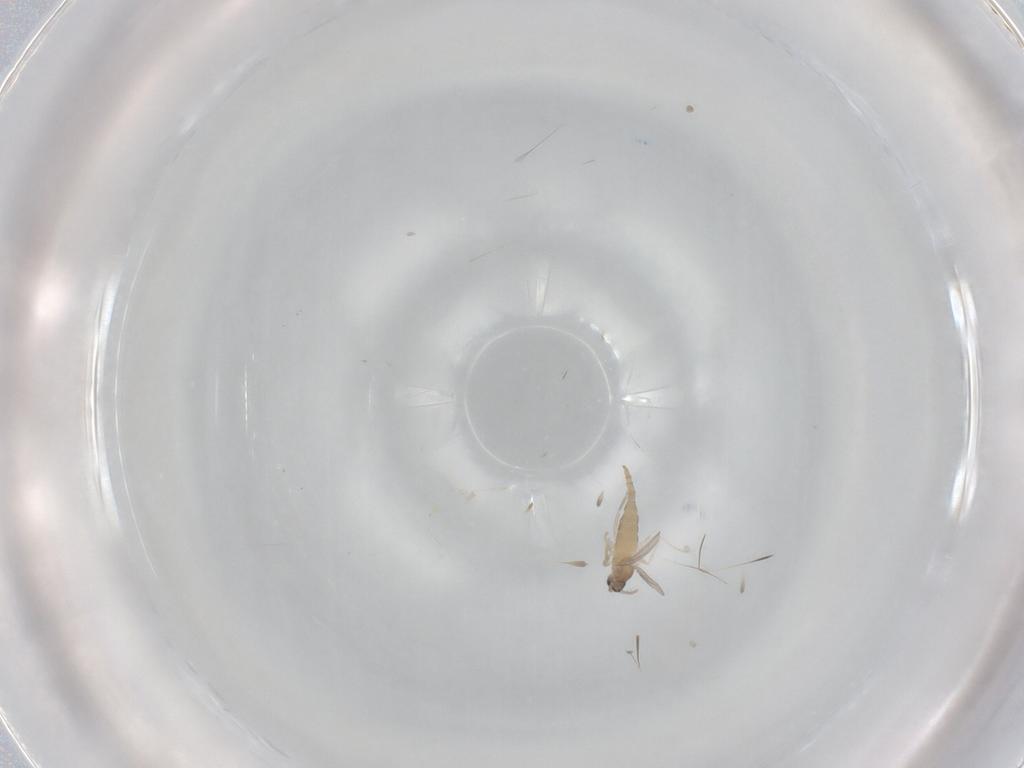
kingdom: Animalia
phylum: Arthropoda
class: Insecta
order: Diptera
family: Cecidomyiidae
